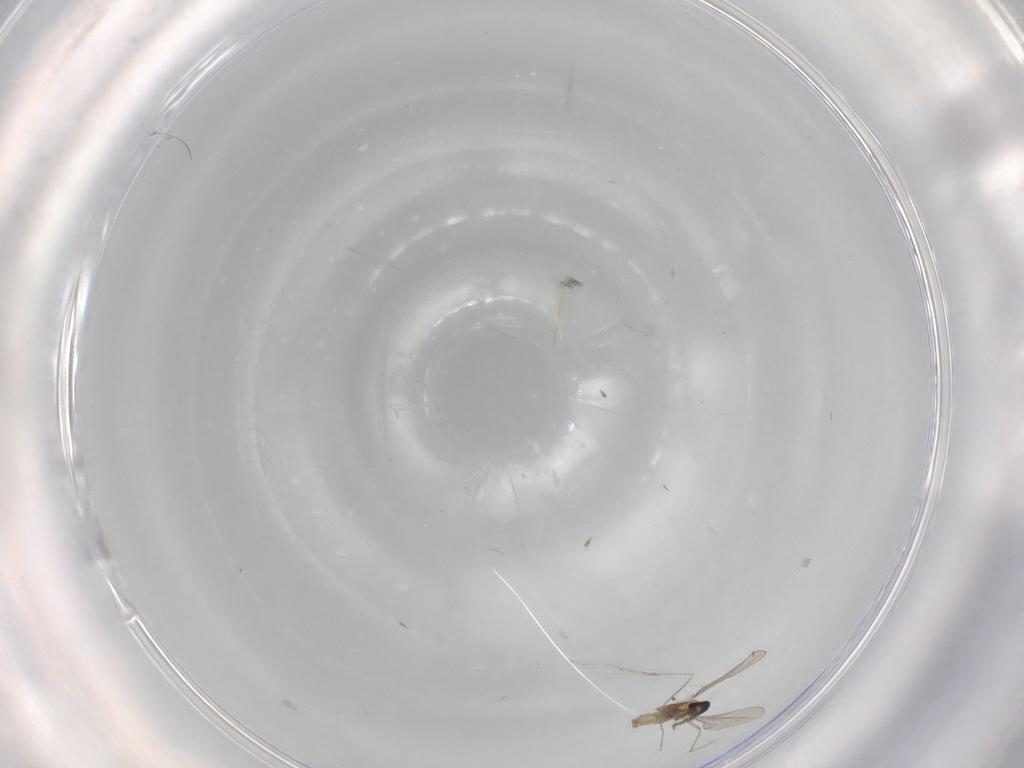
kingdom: Animalia
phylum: Arthropoda
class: Insecta
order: Diptera
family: Cecidomyiidae
